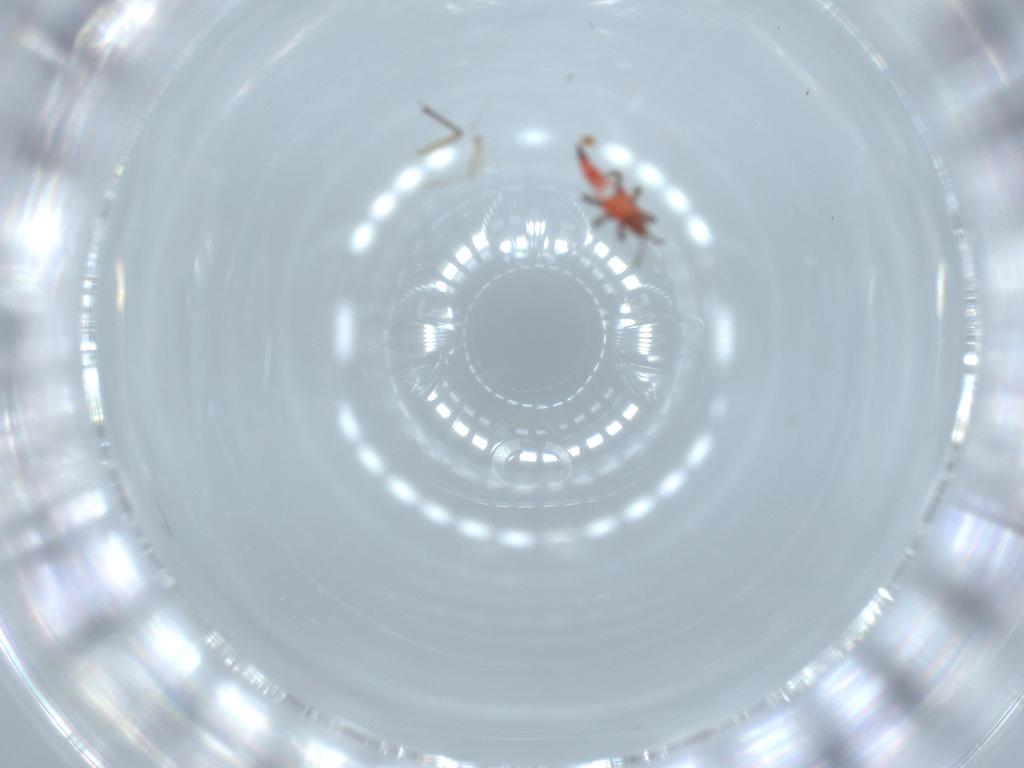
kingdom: Animalia
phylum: Arthropoda
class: Insecta
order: Thysanoptera
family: Phlaeothripidae
